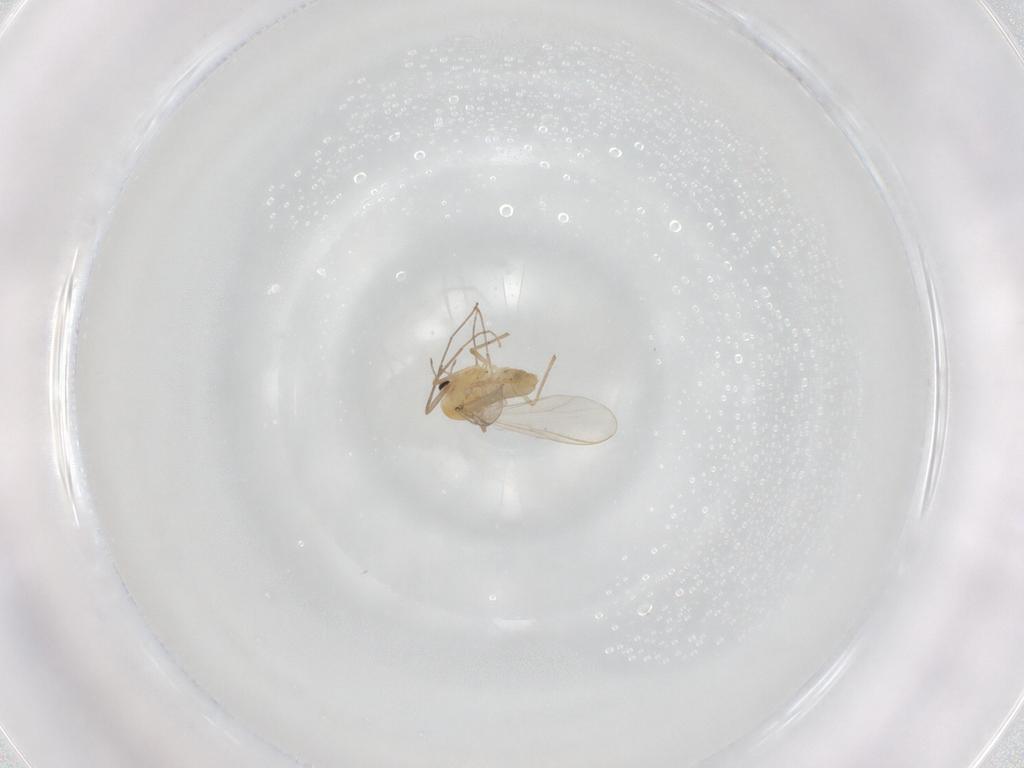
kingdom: Animalia
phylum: Arthropoda
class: Insecta
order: Diptera
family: Chironomidae
